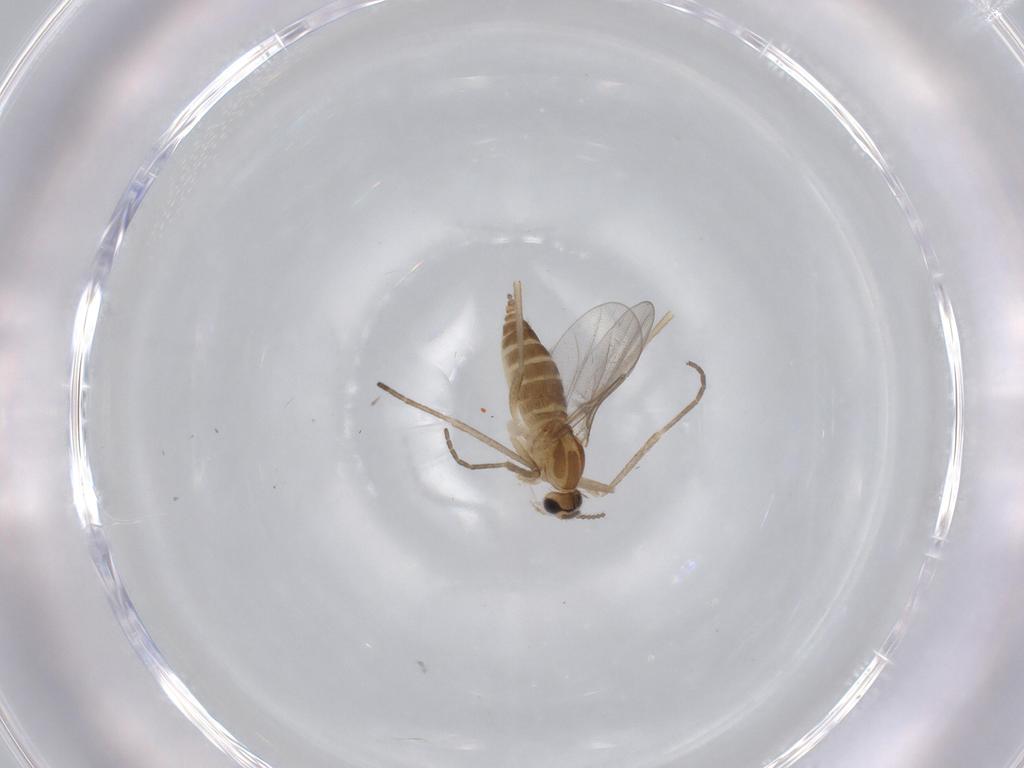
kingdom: Animalia
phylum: Arthropoda
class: Insecta
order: Diptera
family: Cecidomyiidae
